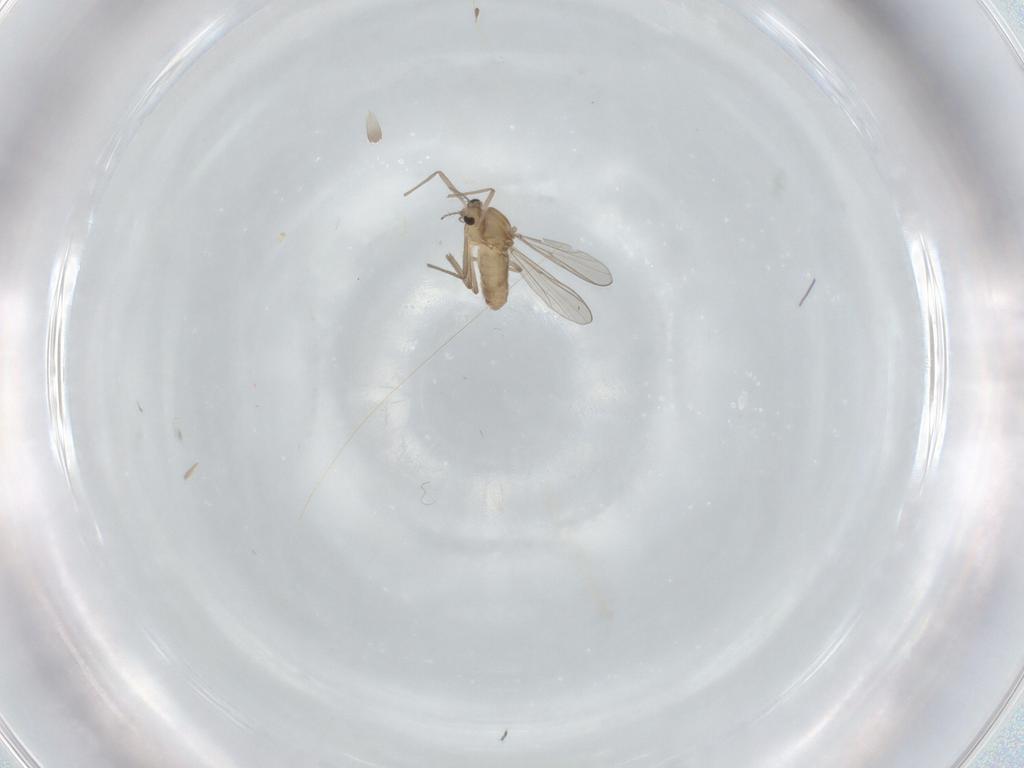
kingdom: Animalia
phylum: Arthropoda
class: Insecta
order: Diptera
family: Chironomidae
